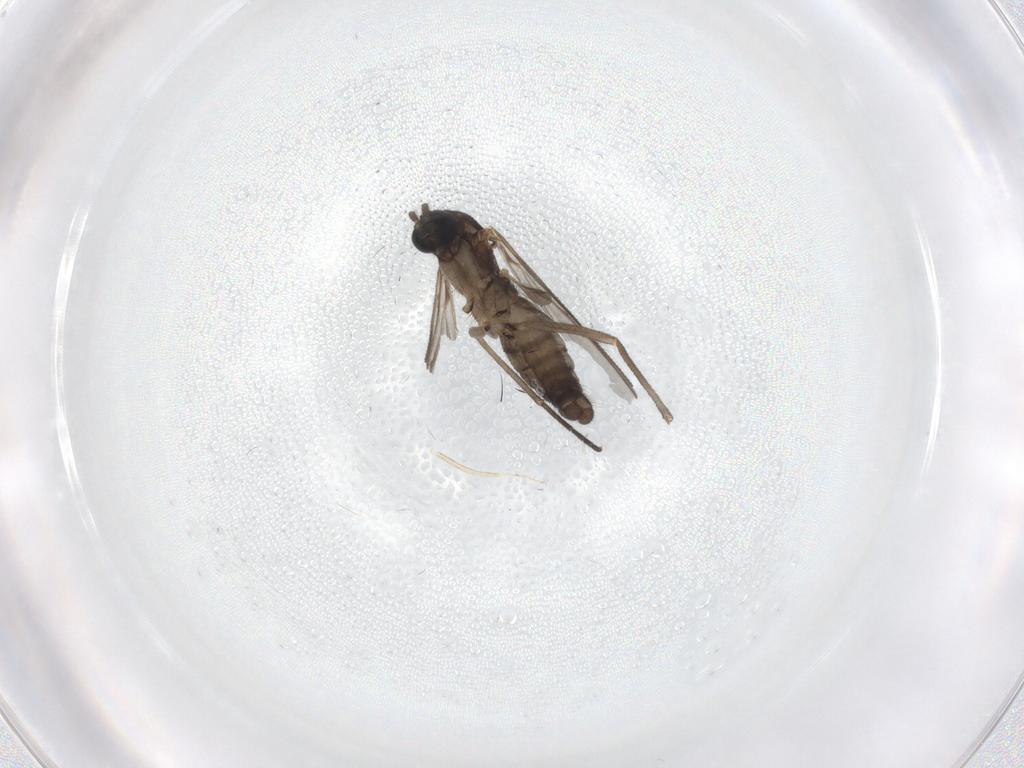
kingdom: Animalia
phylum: Arthropoda
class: Insecta
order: Diptera
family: Sciaridae
